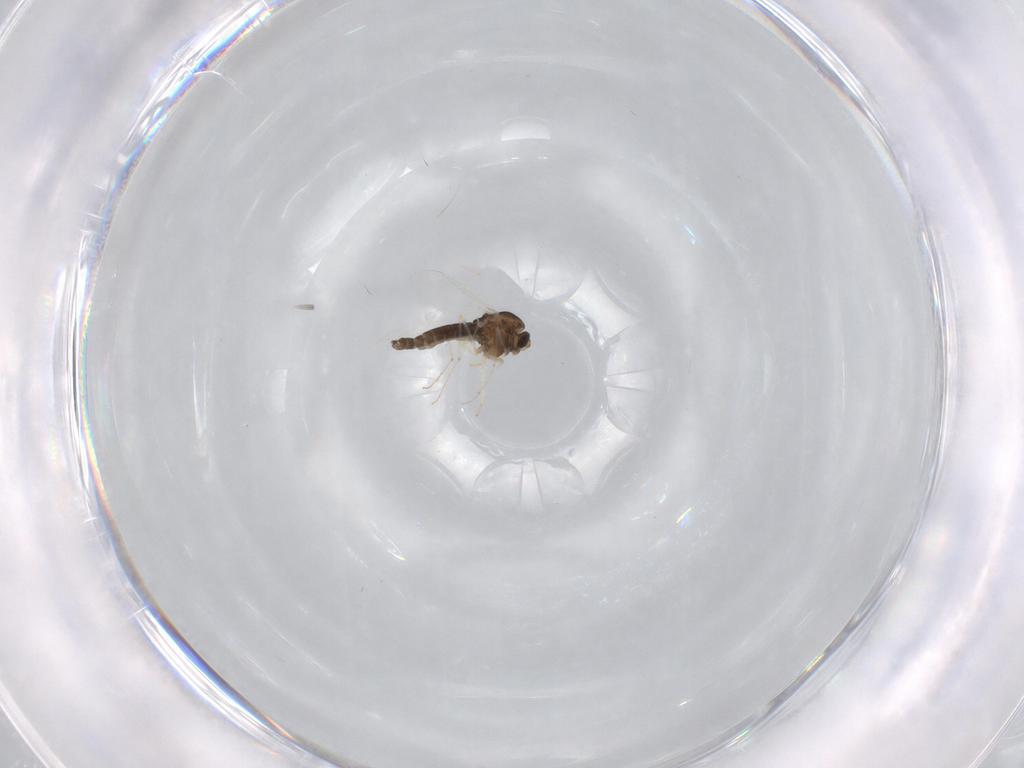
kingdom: Animalia
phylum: Arthropoda
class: Insecta
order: Diptera
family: Chironomidae
